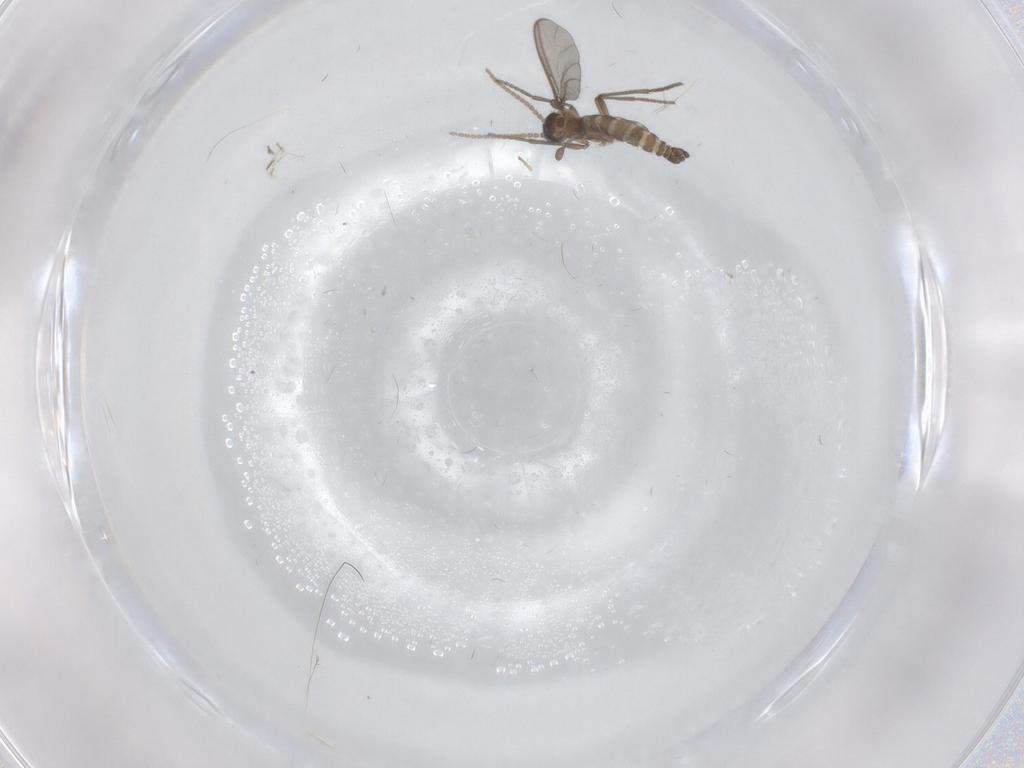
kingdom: Animalia
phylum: Arthropoda
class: Insecta
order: Diptera
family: Sciaridae
